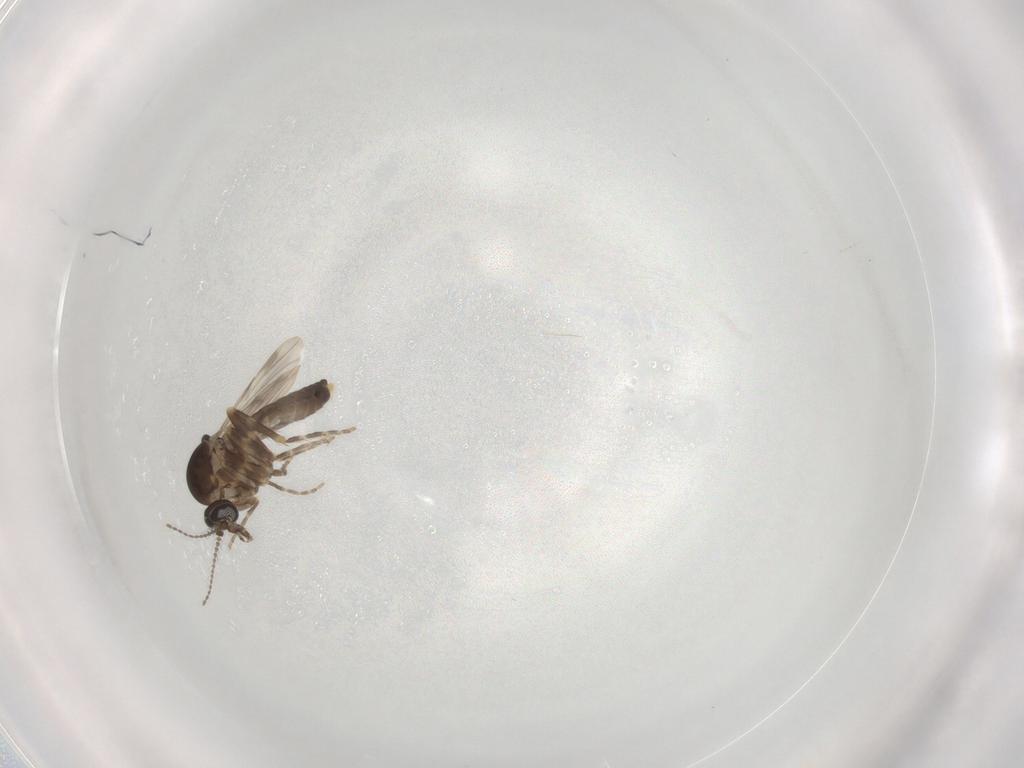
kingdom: Animalia
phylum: Arthropoda
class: Insecta
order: Diptera
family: Ceratopogonidae
